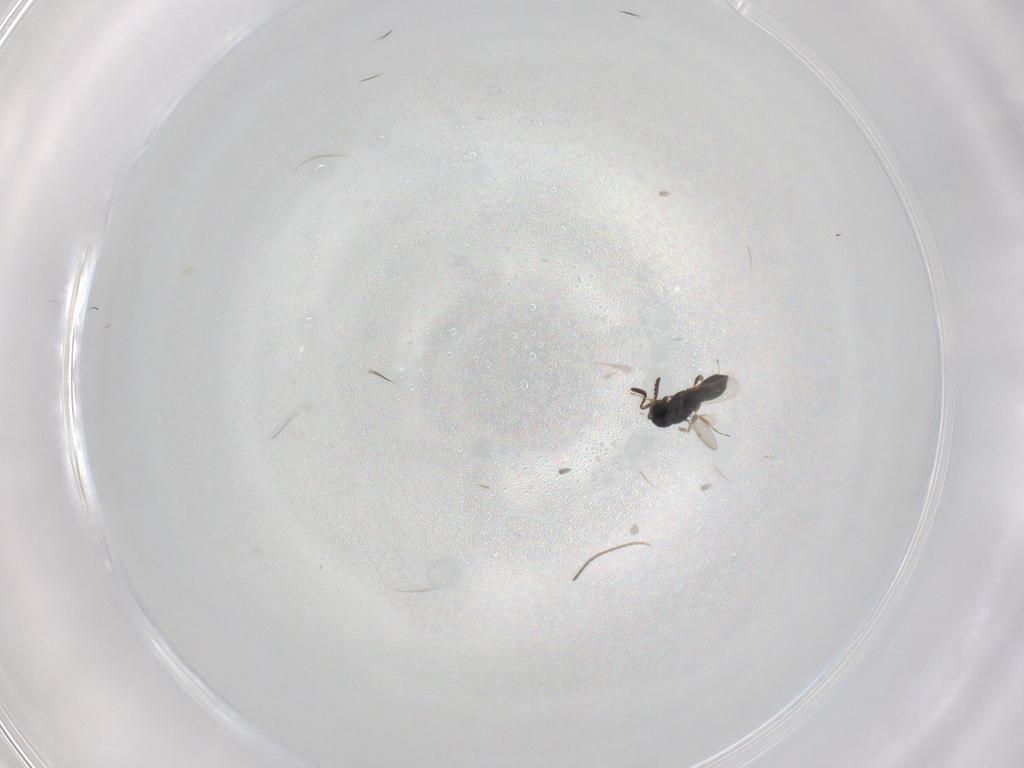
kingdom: Animalia
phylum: Arthropoda
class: Insecta
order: Hymenoptera
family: Scelionidae
